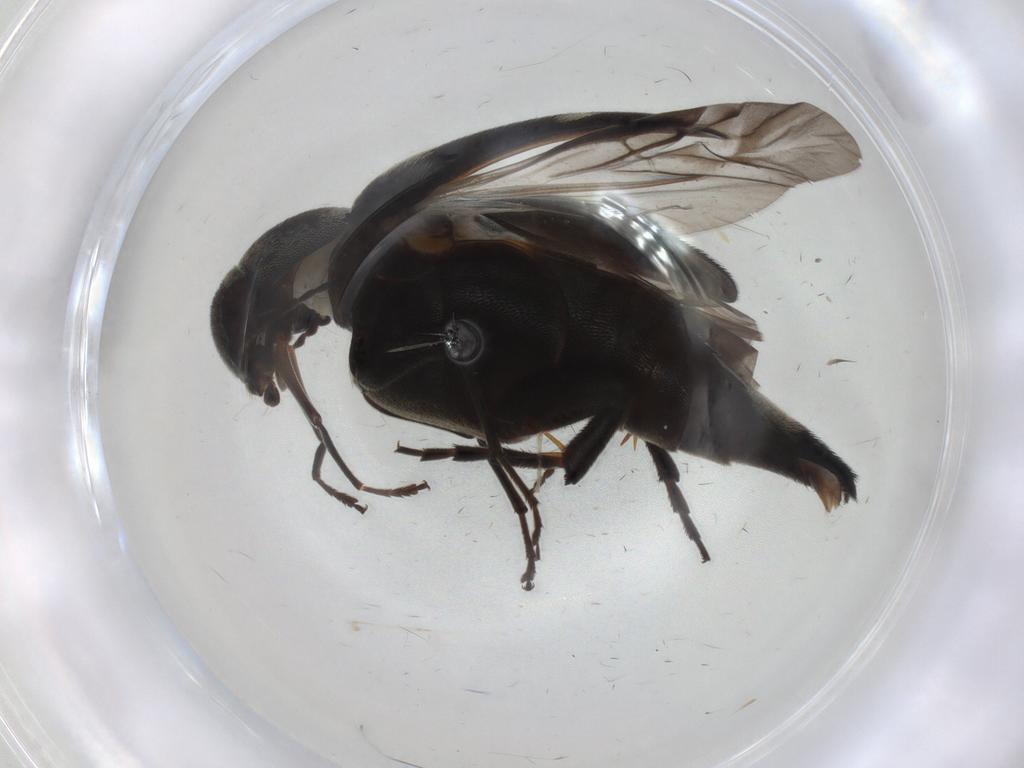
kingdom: Animalia
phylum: Arthropoda
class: Insecta
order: Coleoptera
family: Mordellidae
